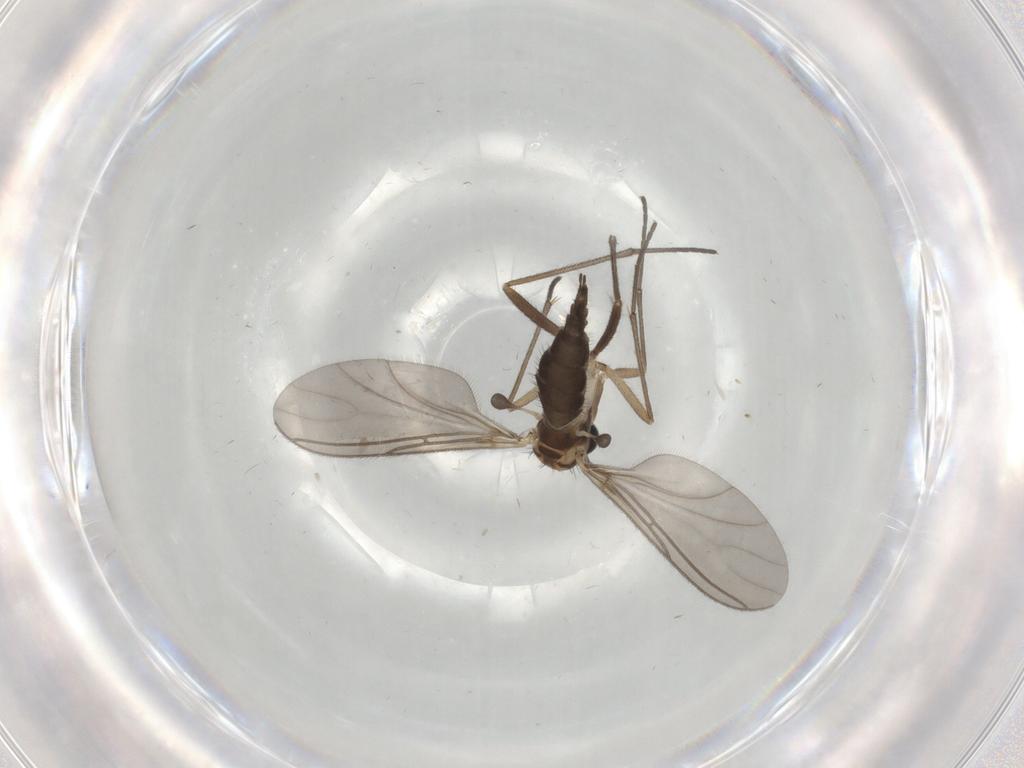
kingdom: Animalia
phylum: Arthropoda
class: Insecta
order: Diptera
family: Sciaridae
